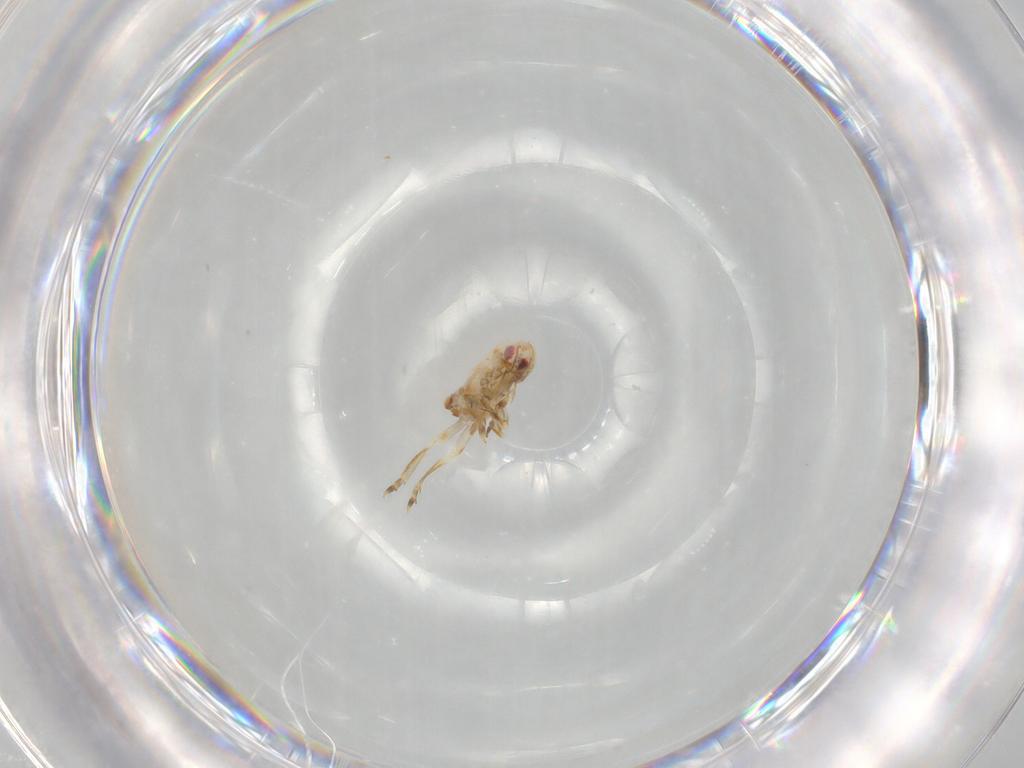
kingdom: Animalia
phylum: Arthropoda
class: Insecta
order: Hemiptera
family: Flatidae
